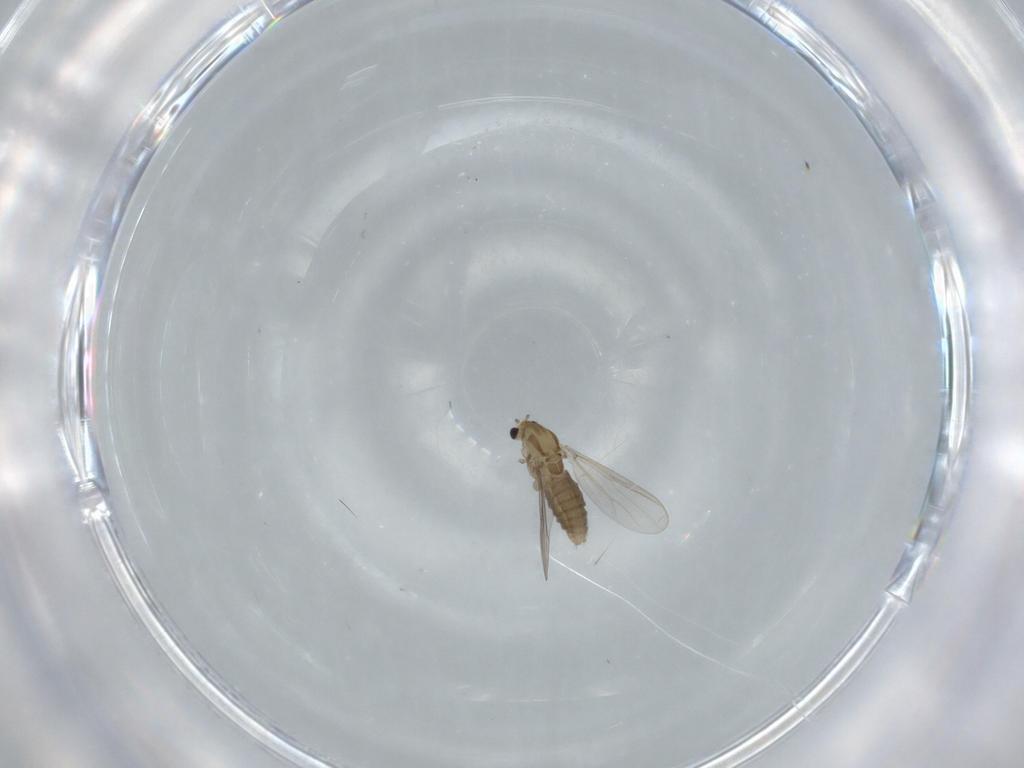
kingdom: Animalia
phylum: Arthropoda
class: Insecta
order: Diptera
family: Chironomidae
